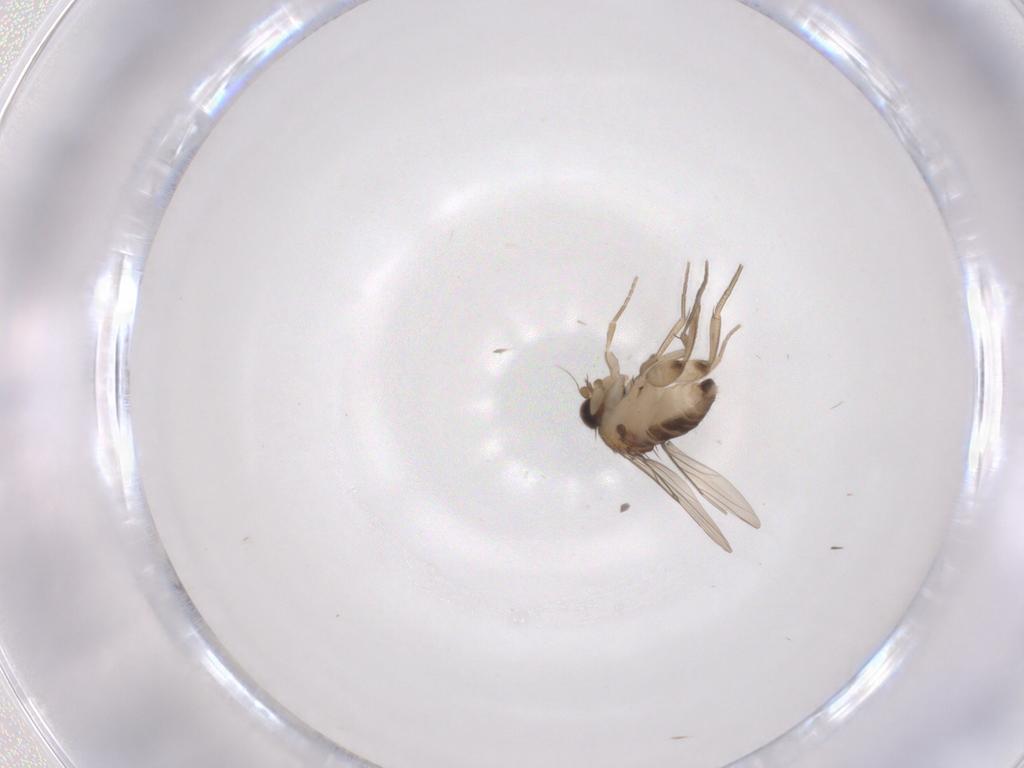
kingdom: Animalia
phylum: Arthropoda
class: Insecta
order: Diptera
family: Phoridae
